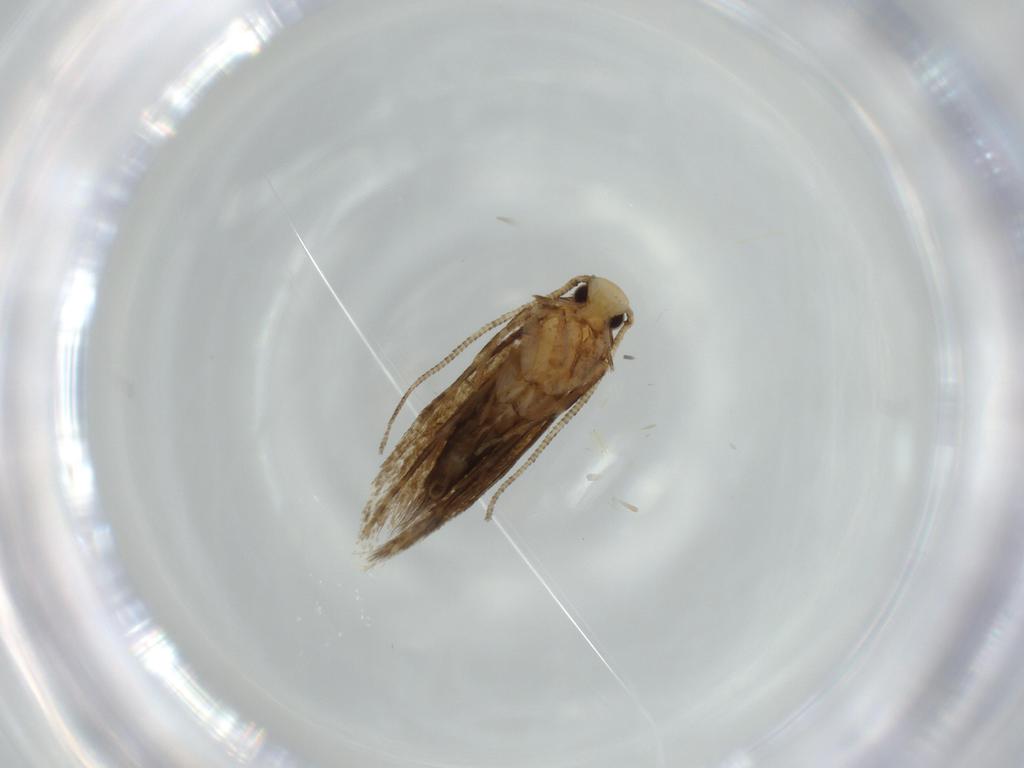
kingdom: Animalia
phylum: Arthropoda
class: Insecta
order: Lepidoptera
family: Tineidae
